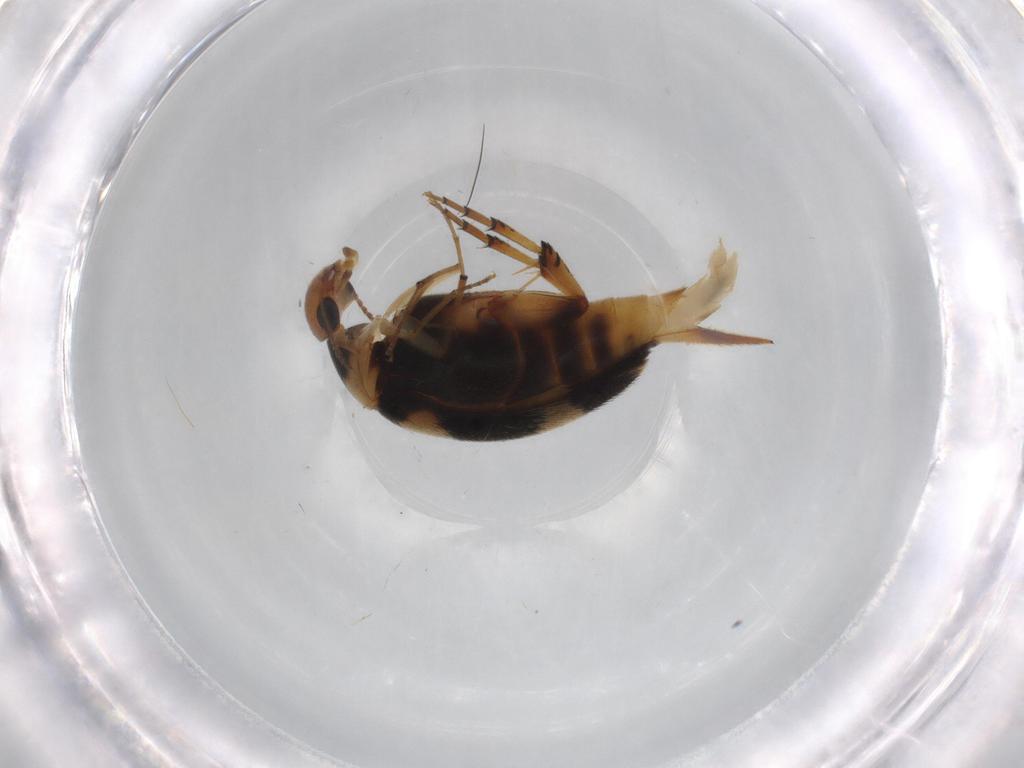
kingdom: Animalia
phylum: Arthropoda
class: Insecta
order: Coleoptera
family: Mordellidae
